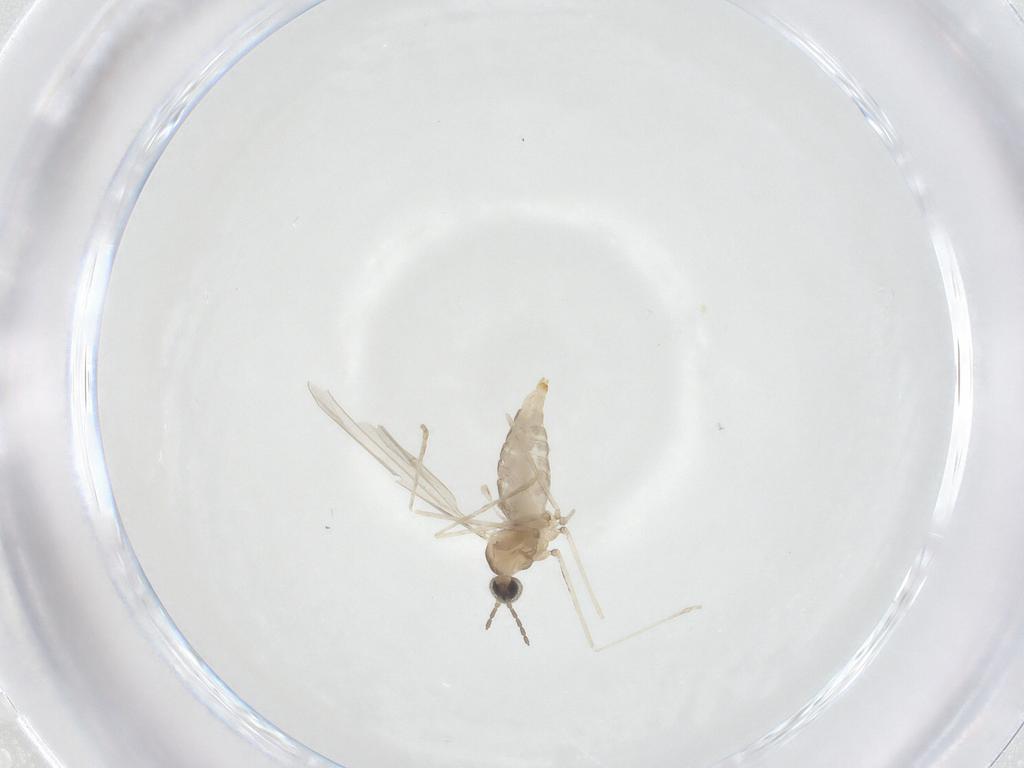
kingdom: Animalia
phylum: Arthropoda
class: Insecta
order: Diptera
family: Cecidomyiidae
